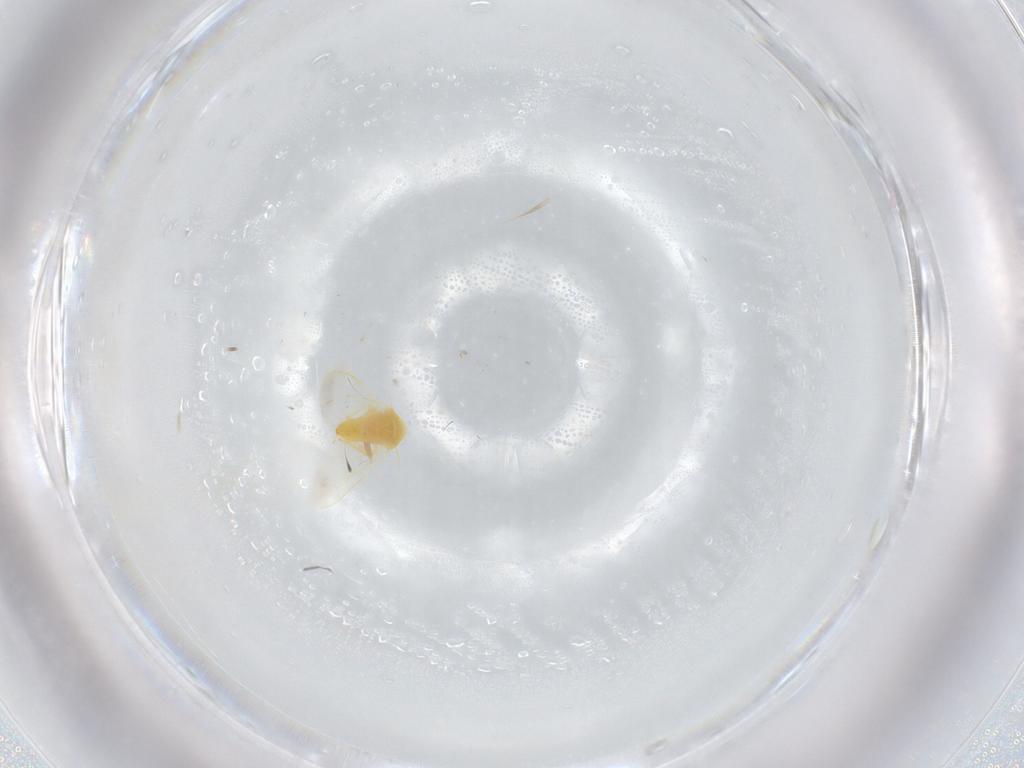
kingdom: Animalia
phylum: Arthropoda
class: Insecta
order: Hemiptera
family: Aleyrodidae
